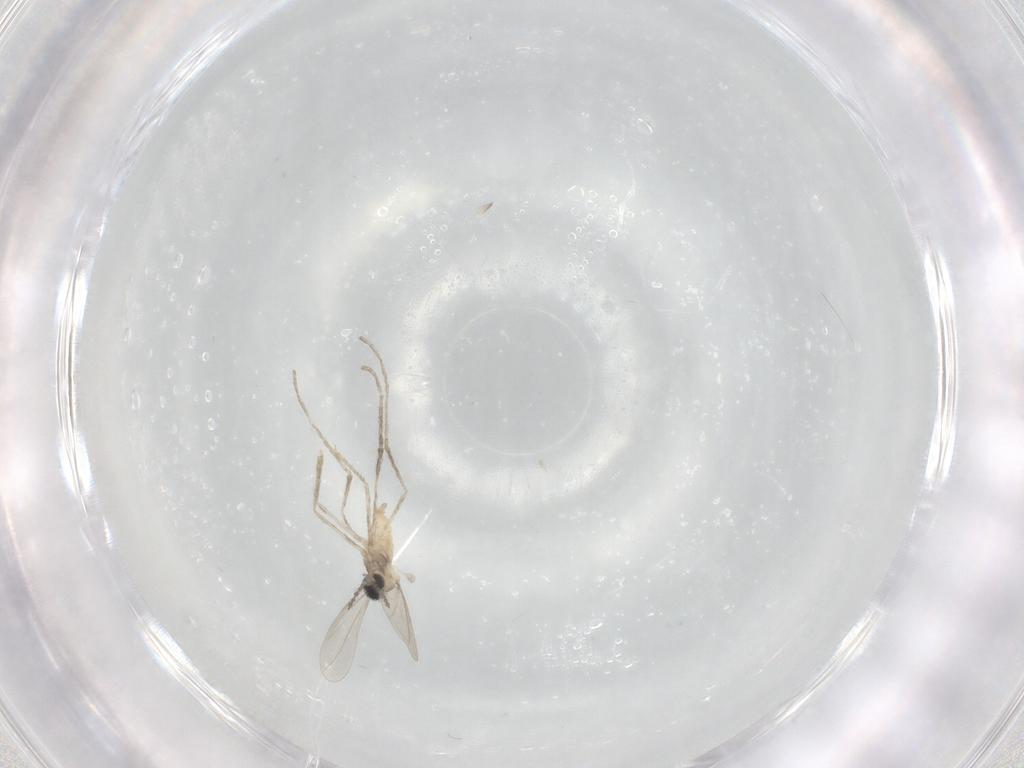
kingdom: Animalia
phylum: Arthropoda
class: Insecta
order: Diptera
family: Cecidomyiidae
